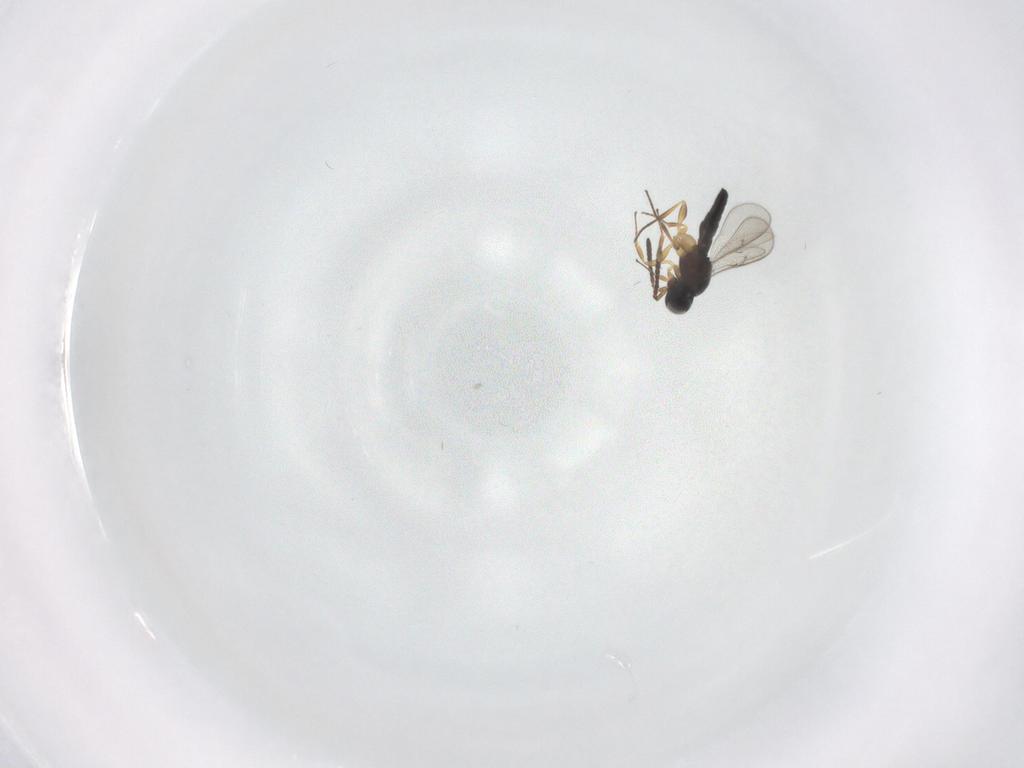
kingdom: Animalia
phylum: Arthropoda
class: Insecta
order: Hymenoptera
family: Scelionidae
